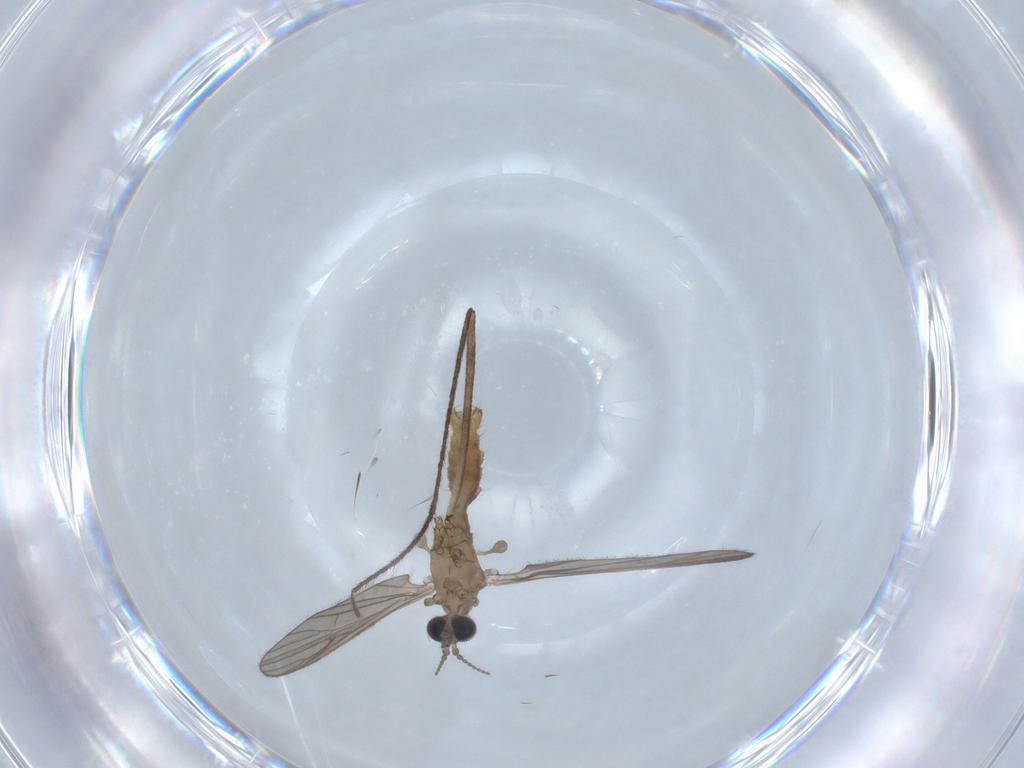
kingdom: Animalia
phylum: Arthropoda
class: Insecta
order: Diptera
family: Limoniidae
